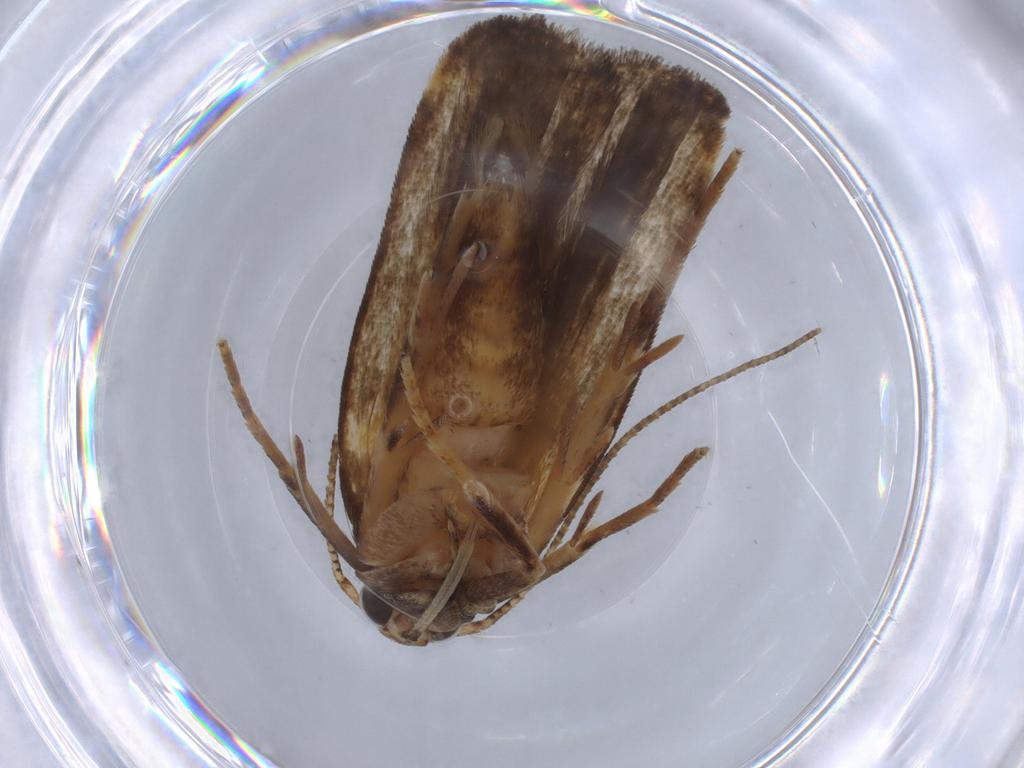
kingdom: Animalia
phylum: Arthropoda
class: Insecta
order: Lepidoptera
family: Gelechiidae
